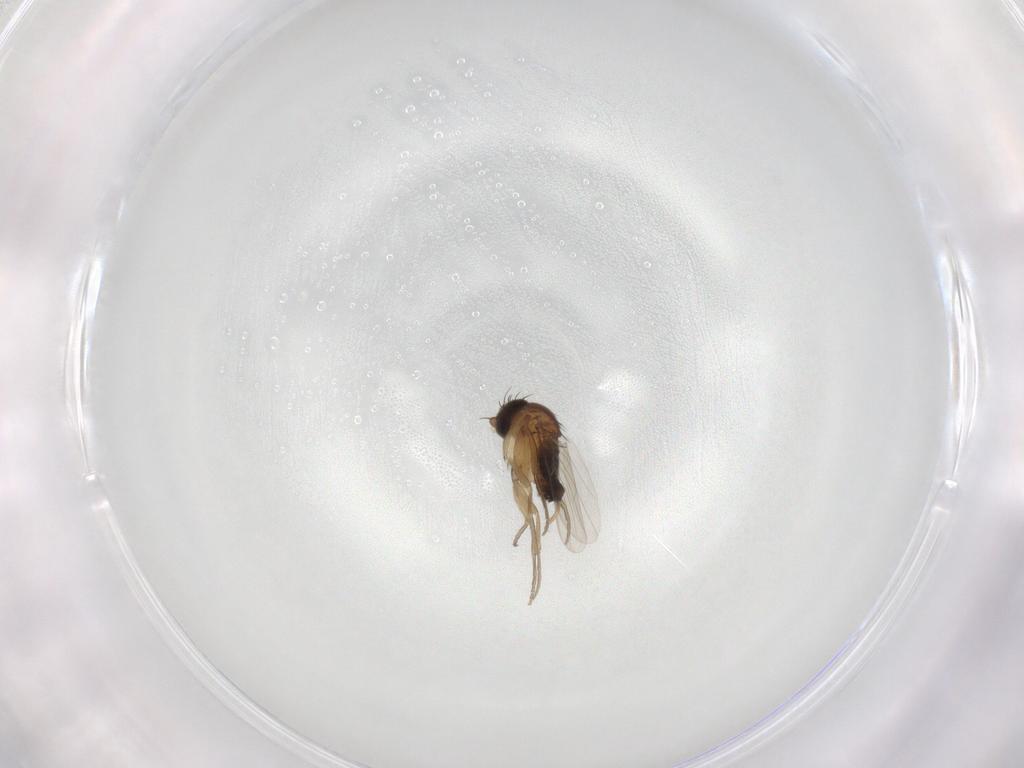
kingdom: Animalia
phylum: Arthropoda
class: Insecta
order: Diptera
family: Phoridae
